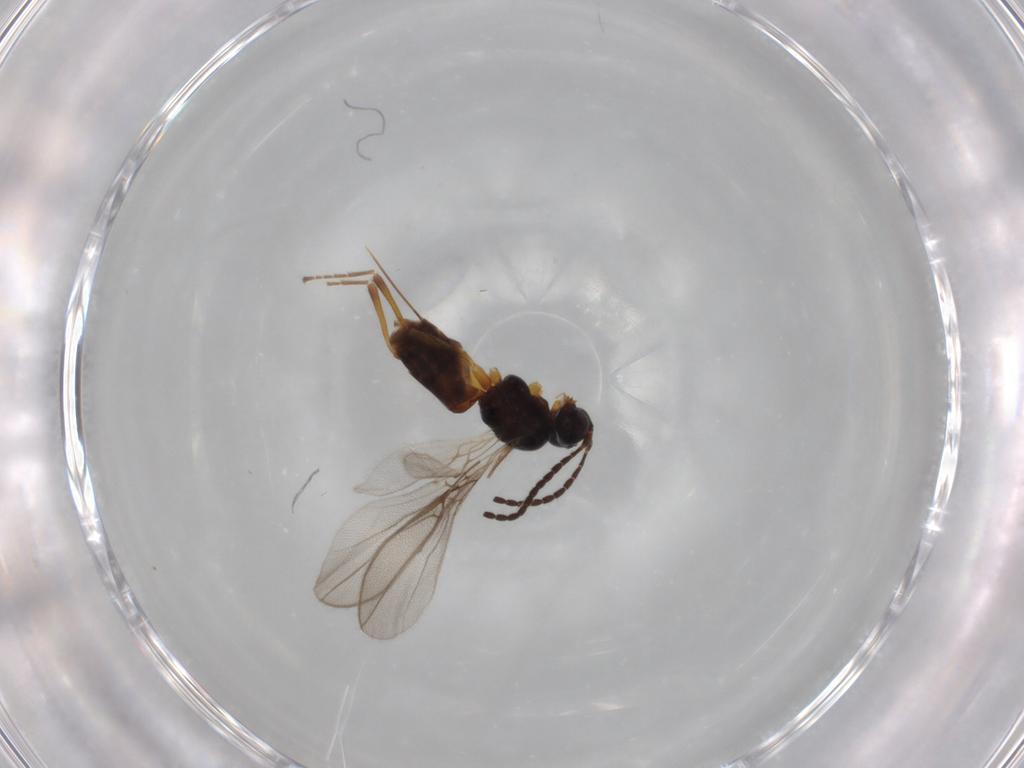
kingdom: Animalia
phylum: Arthropoda
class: Insecta
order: Hymenoptera
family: Braconidae
